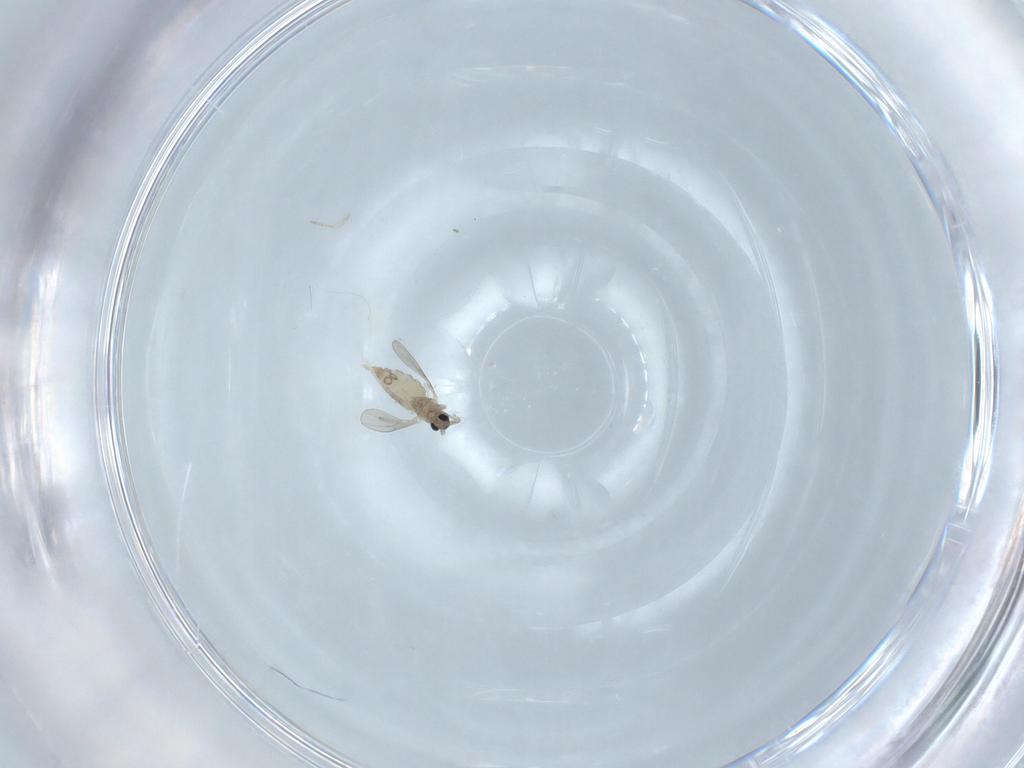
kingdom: Animalia
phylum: Arthropoda
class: Insecta
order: Diptera
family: Cecidomyiidae
